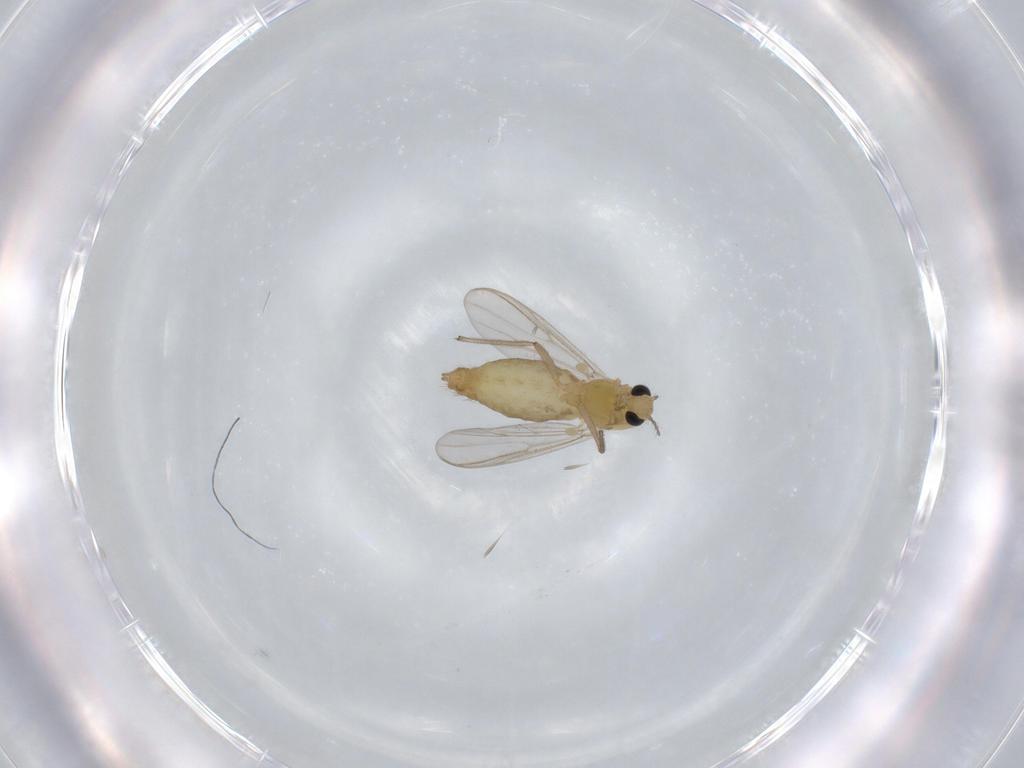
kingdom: Animalia
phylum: Arthropoda
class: Insecta
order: Diptera
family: Chironomidae
